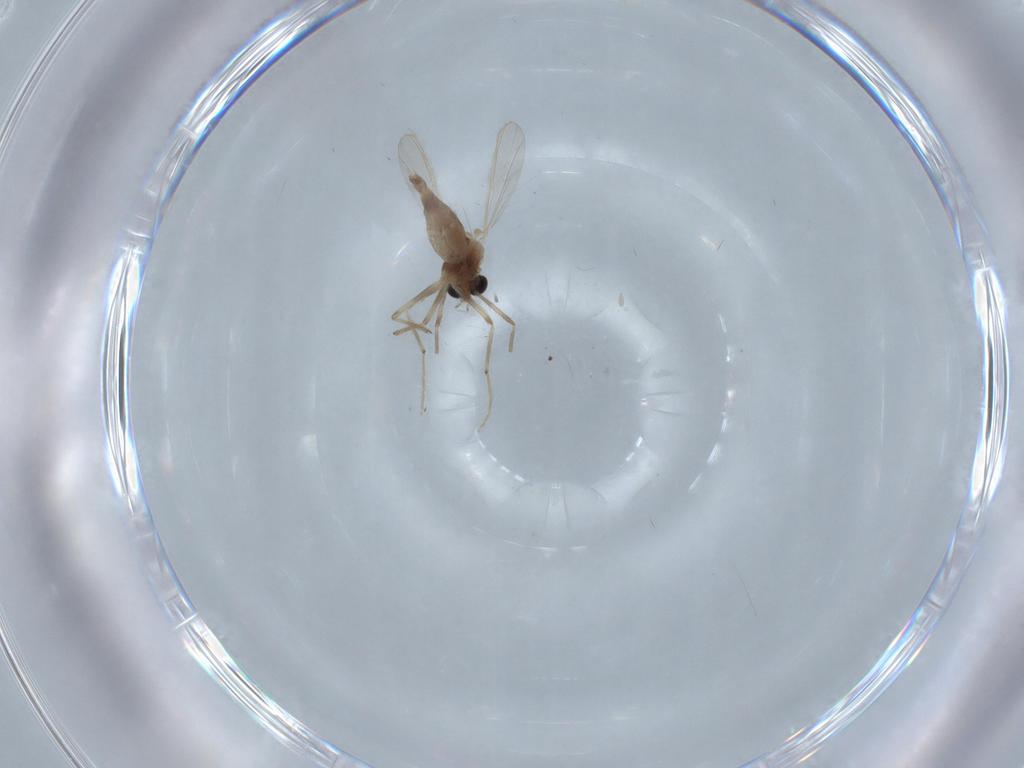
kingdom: Animalia
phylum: Arthropoda
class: Insecta
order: Diptera
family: Chironomidae
